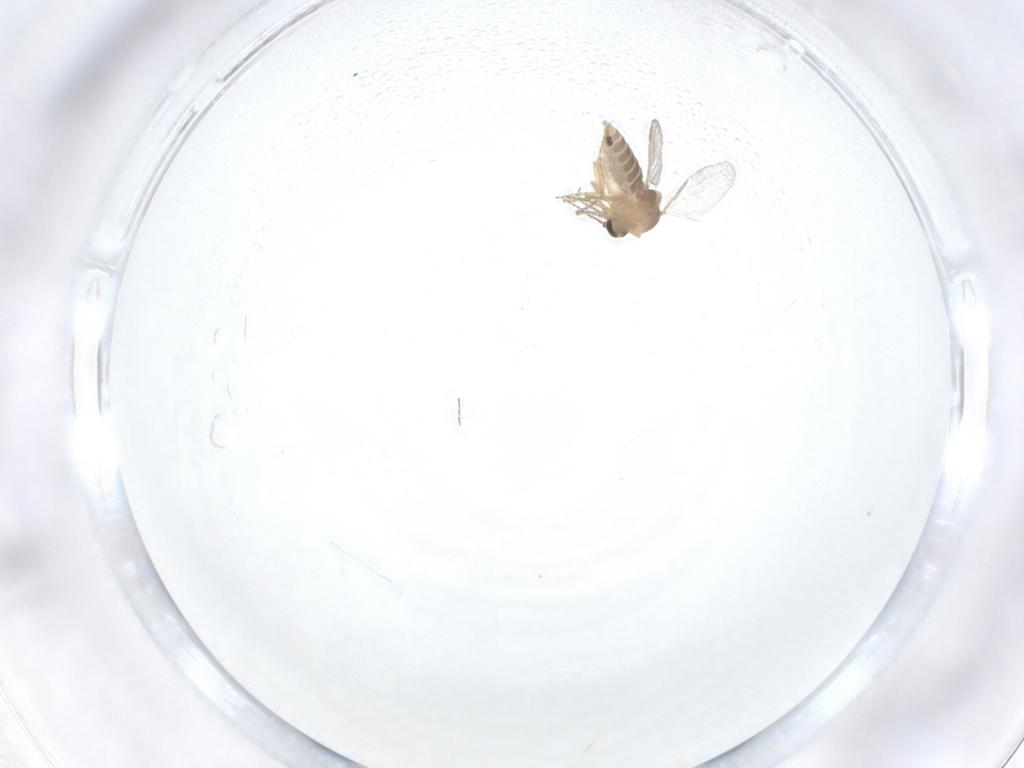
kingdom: Animalia
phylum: Arthropoda
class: Insecta
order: Diptera
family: Ceratopogonidae
